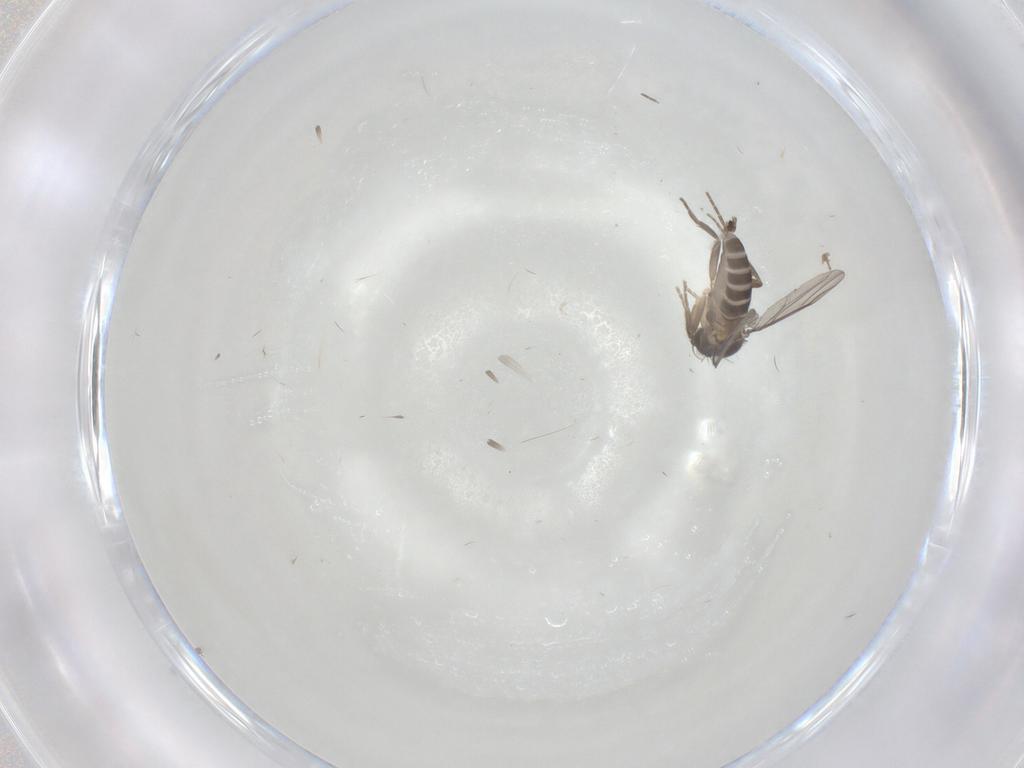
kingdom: Animalia
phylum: Arthropoda
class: Insecta
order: Diptera
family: Phoridae
